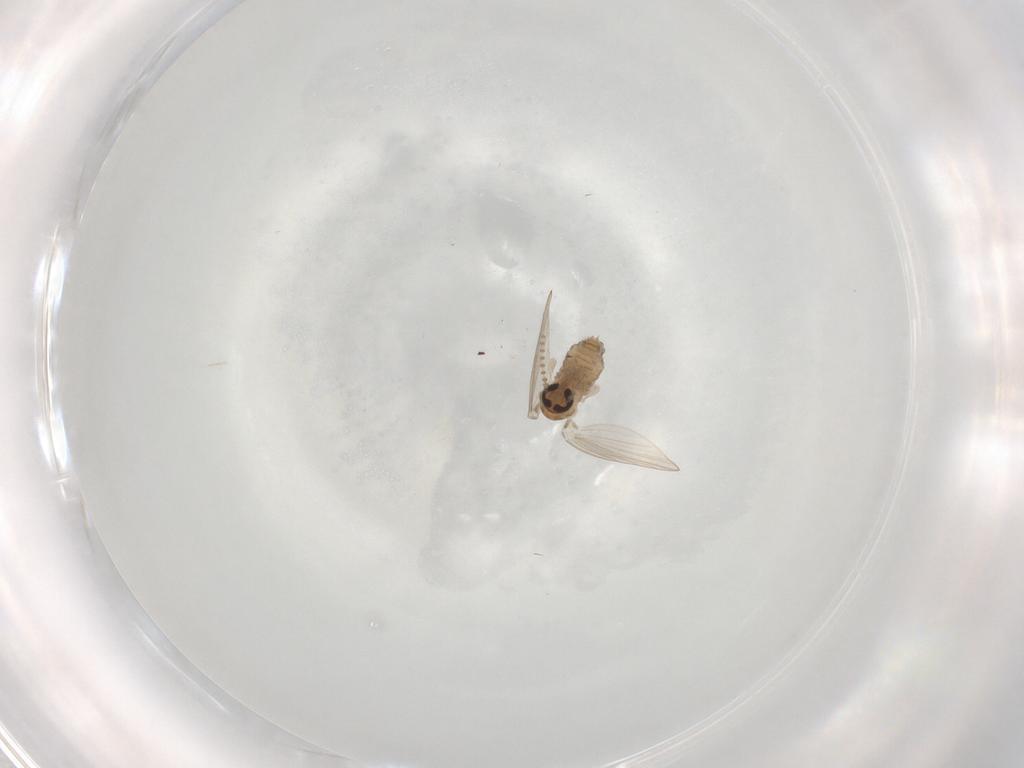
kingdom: Animalia
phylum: Arthropoda
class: Insecta
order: Diptera
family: Psychodidae
